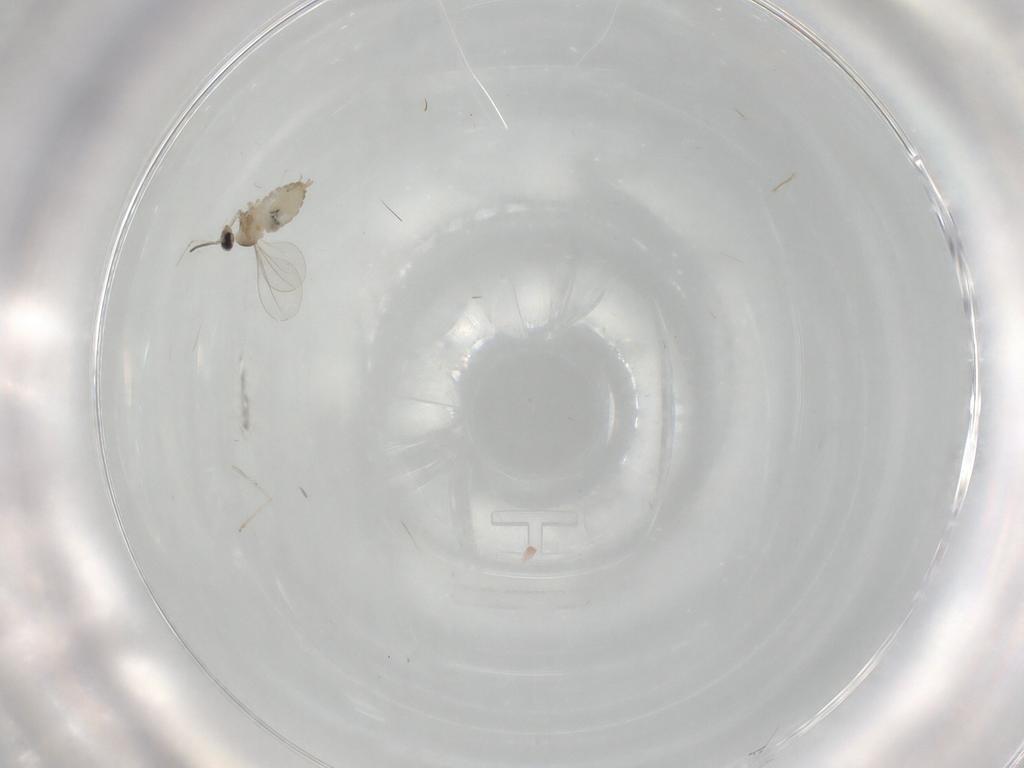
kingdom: Animalia
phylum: Arthropoda
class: Insecta
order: Diptera
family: Cecidomyiidae
